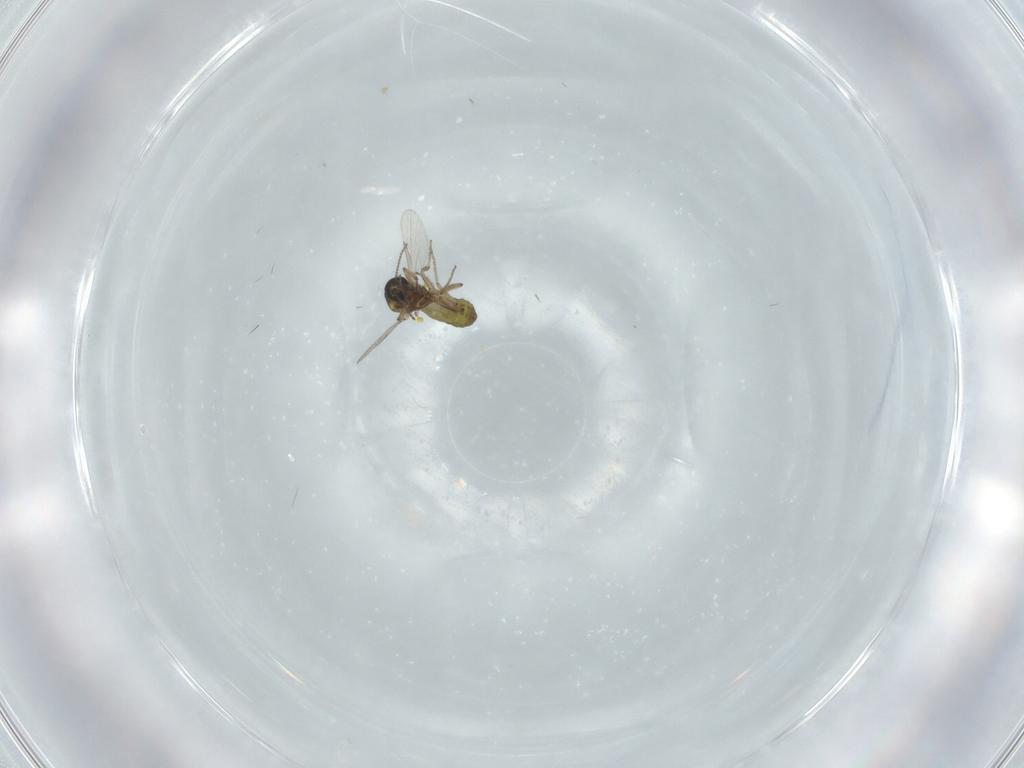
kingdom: Animalia
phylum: Arthropoda
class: Insecta
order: Diptera
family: Ceratopogonidae
